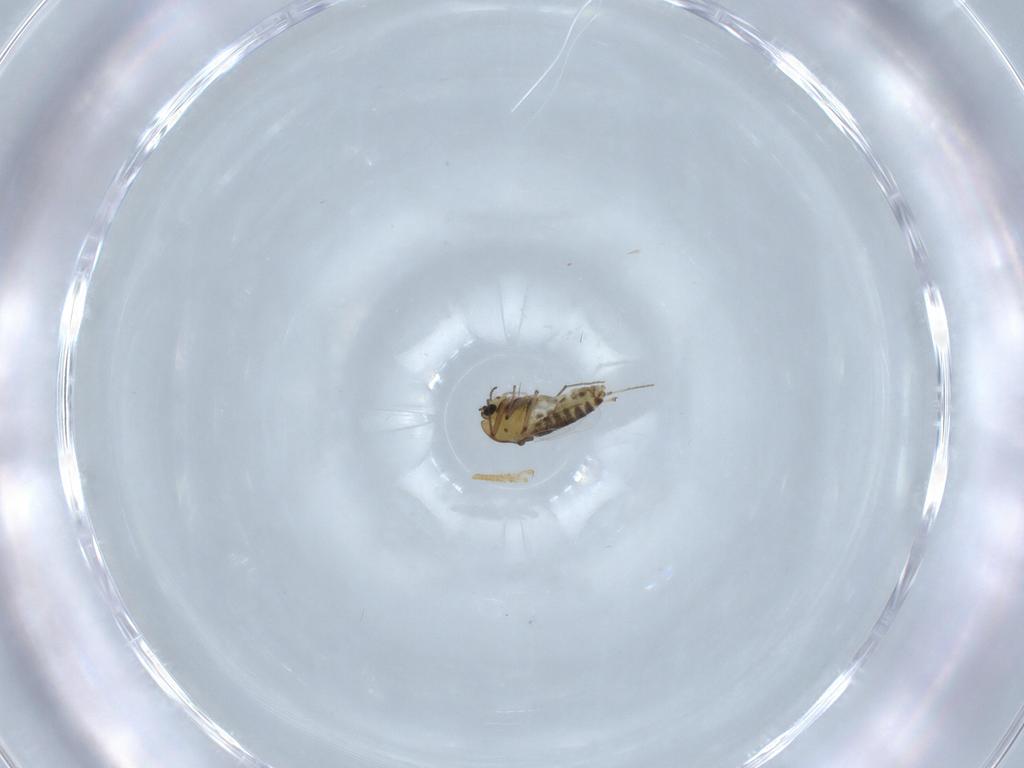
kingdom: Animalia
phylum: Arthropoda
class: Insecta
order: Diptera
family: Chironomidae
